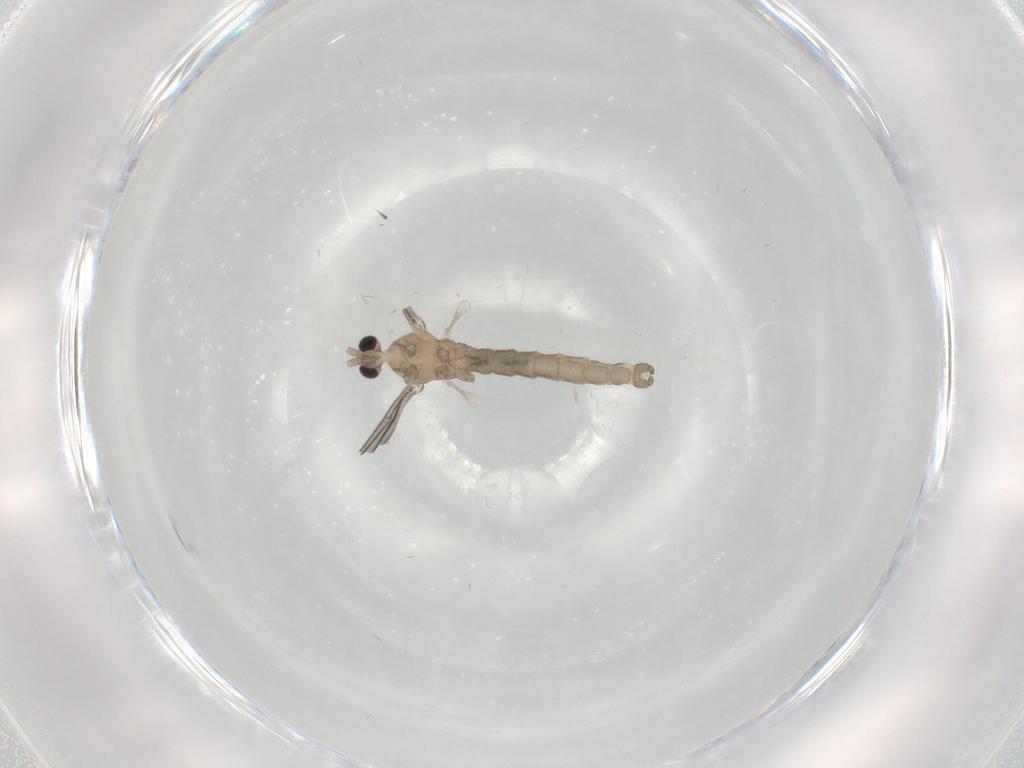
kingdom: Animalia
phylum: Arthropoda
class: Insecta
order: Diptera
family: Chironomidae
